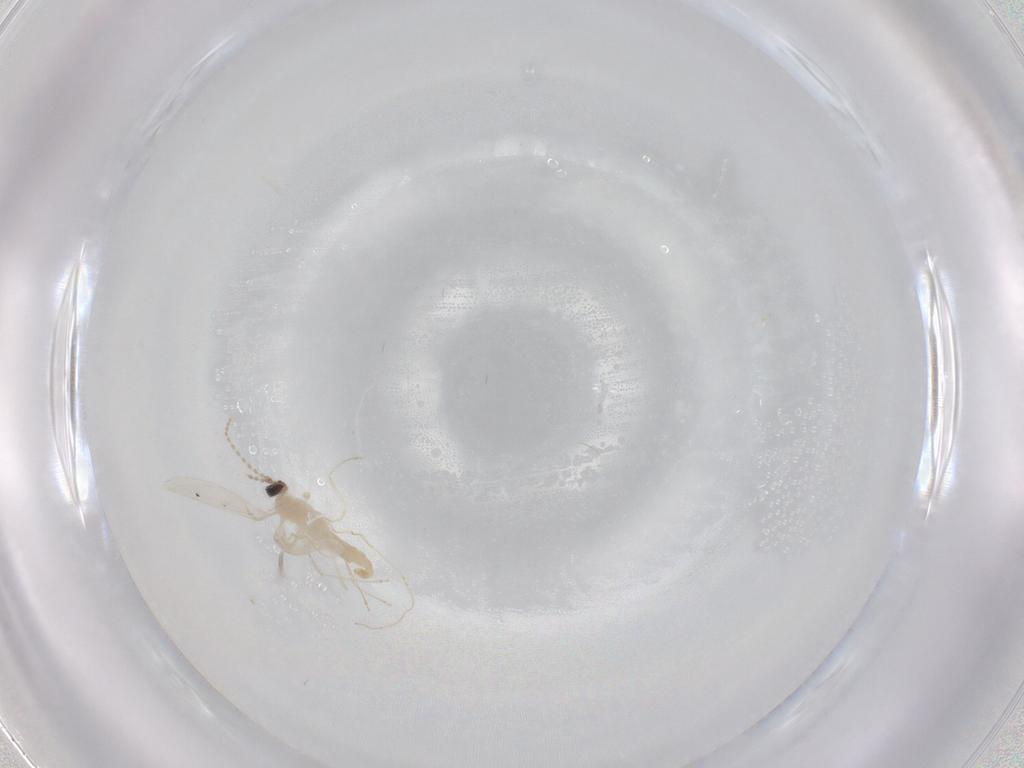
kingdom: Animalia
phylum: Arthropoda
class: Insecta
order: Diptera
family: Cecidomyiidae
